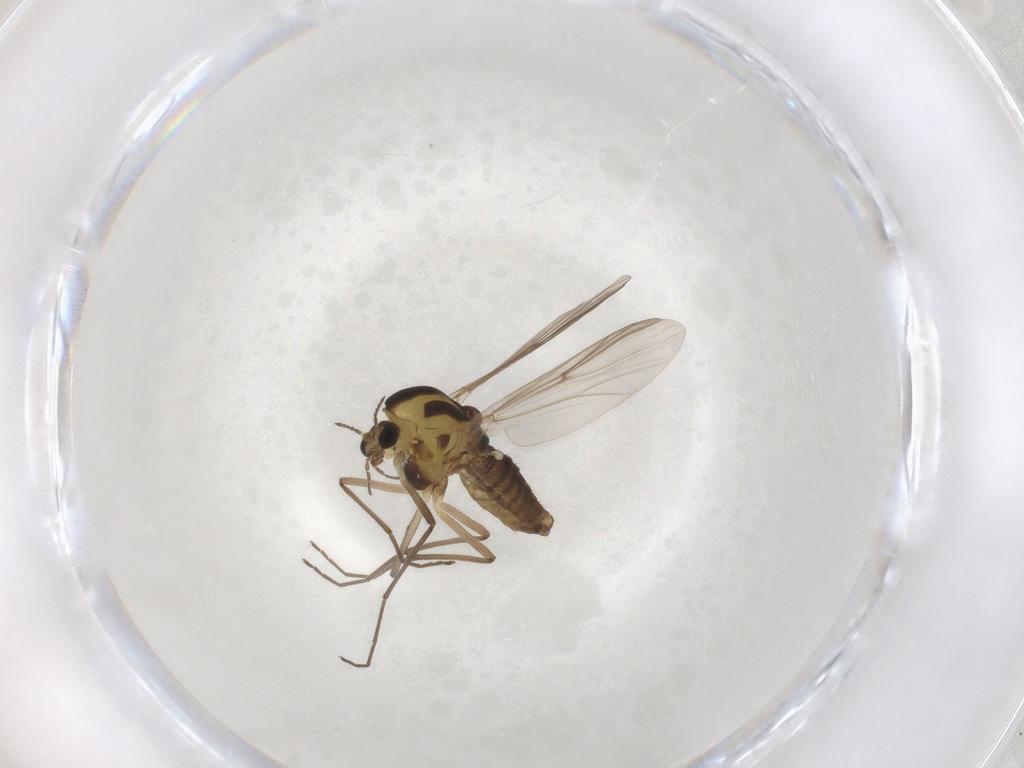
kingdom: Animalia
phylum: Arthropoda
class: Insecta
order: Diptera
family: Chironomidae
